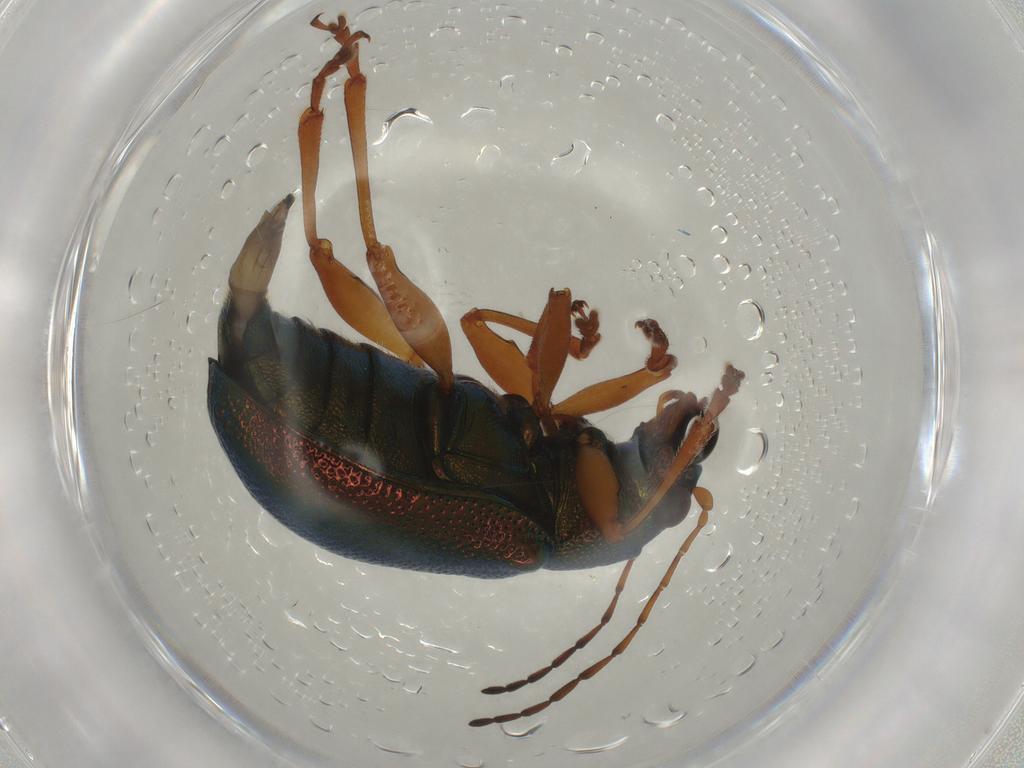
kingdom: Animalia
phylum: Arthropoda
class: Insecta
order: Coleoptera
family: Chrysomelidae
